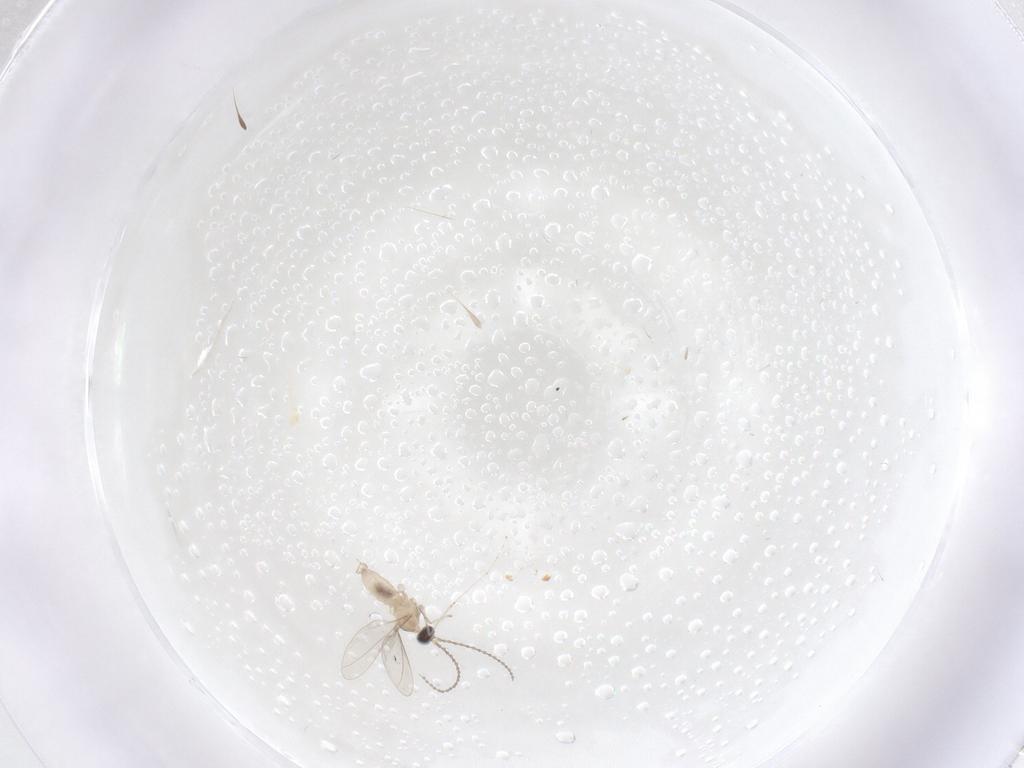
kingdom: Animalia
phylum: Arthropoda
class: Insecta
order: Diptera
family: Cecidomyiidae
